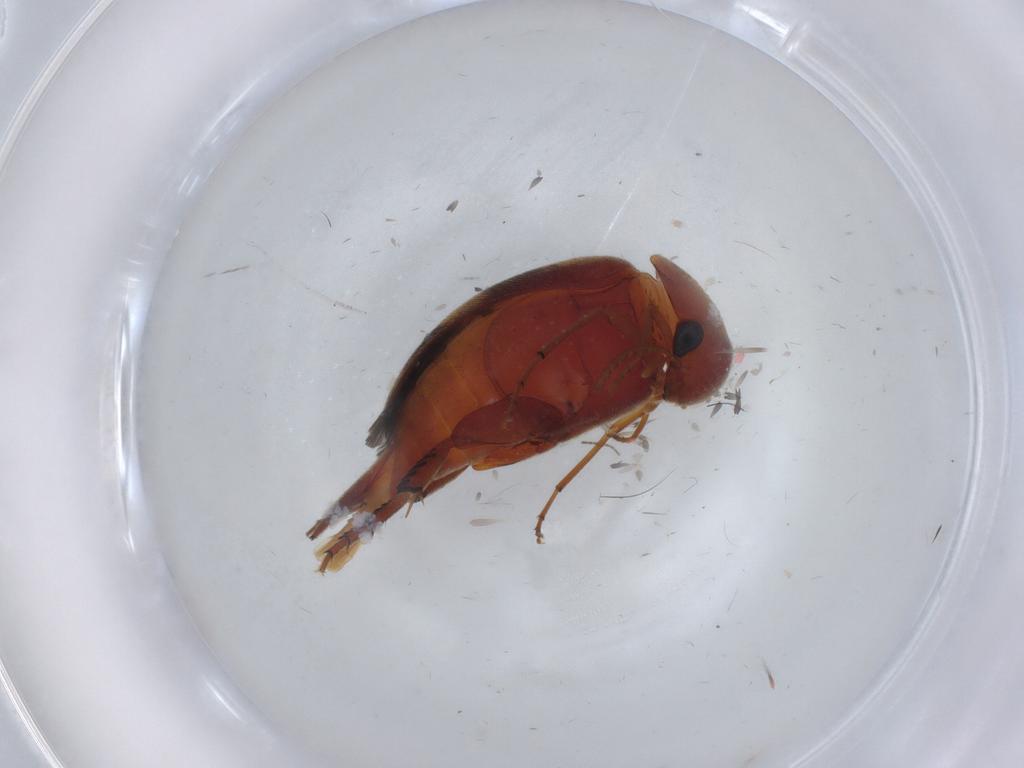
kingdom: Animalia
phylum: Arthropoda
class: Insecta
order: Coleoptera
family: Mordellidae
